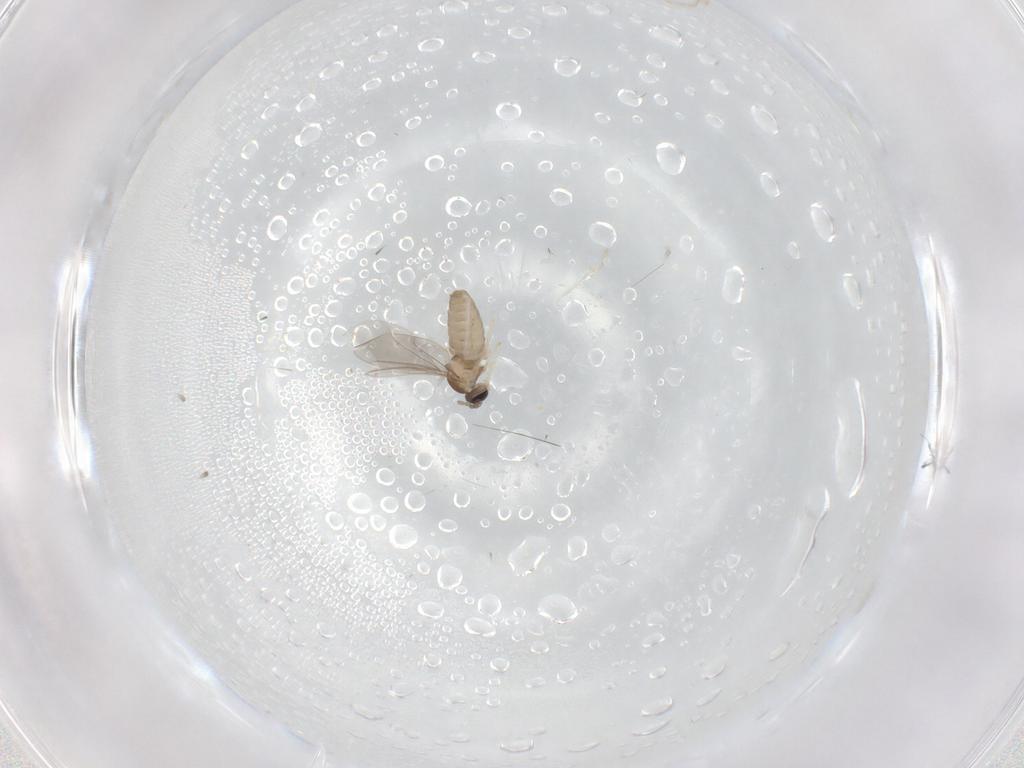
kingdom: Animalia
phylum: Arthropoda
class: Insecta
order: Diptera
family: Cecidomyiidae
